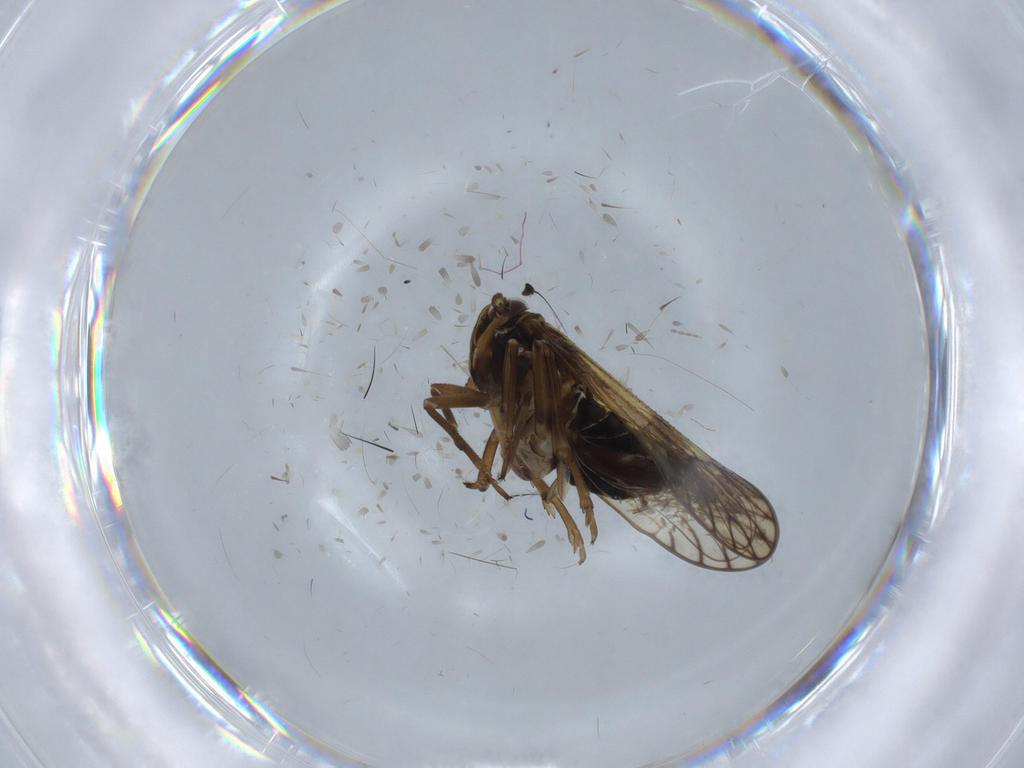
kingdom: Animalia
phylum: Arthropoda
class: Insecta
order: Hemiptera
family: Delphacidae
